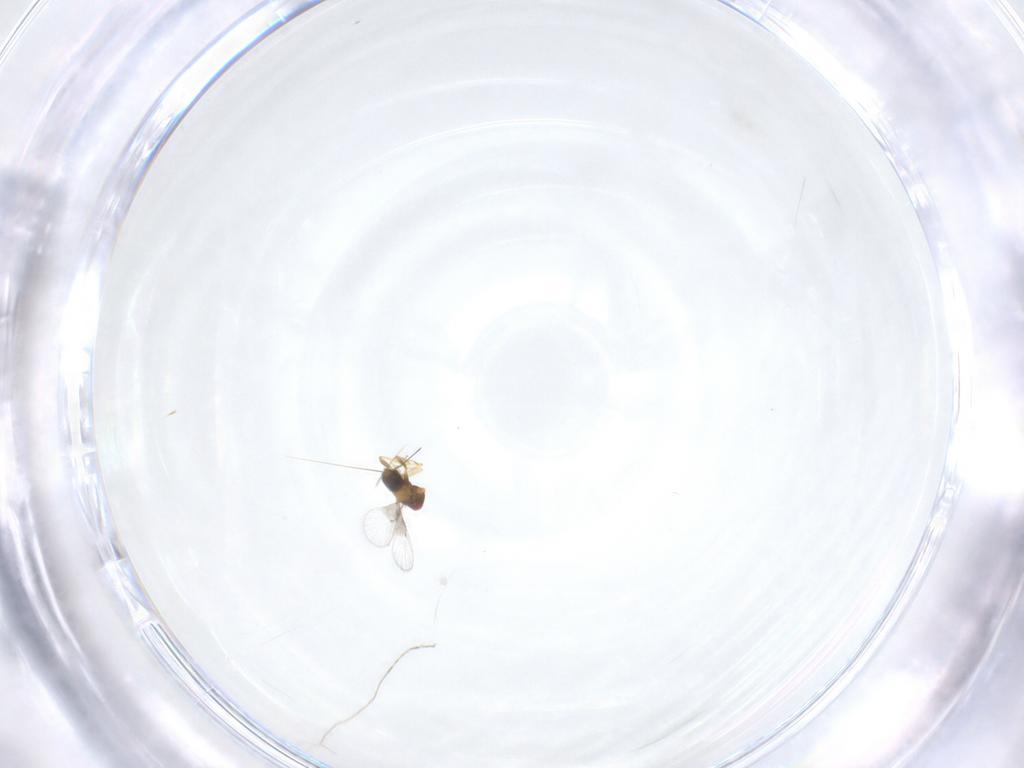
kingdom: Animalia
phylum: Arthropoda
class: Insecta
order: Hymenoptera
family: Trichogrammatidae
